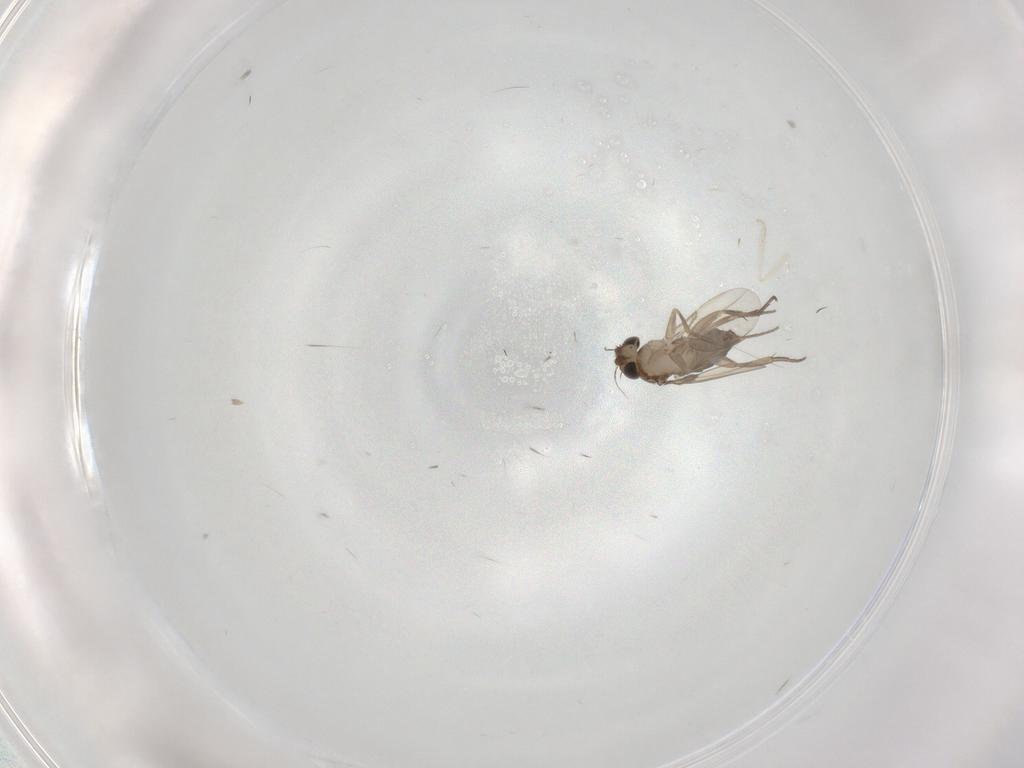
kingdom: Animalia
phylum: Arthropoda
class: Insecta
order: Diptera
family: Phoridae
